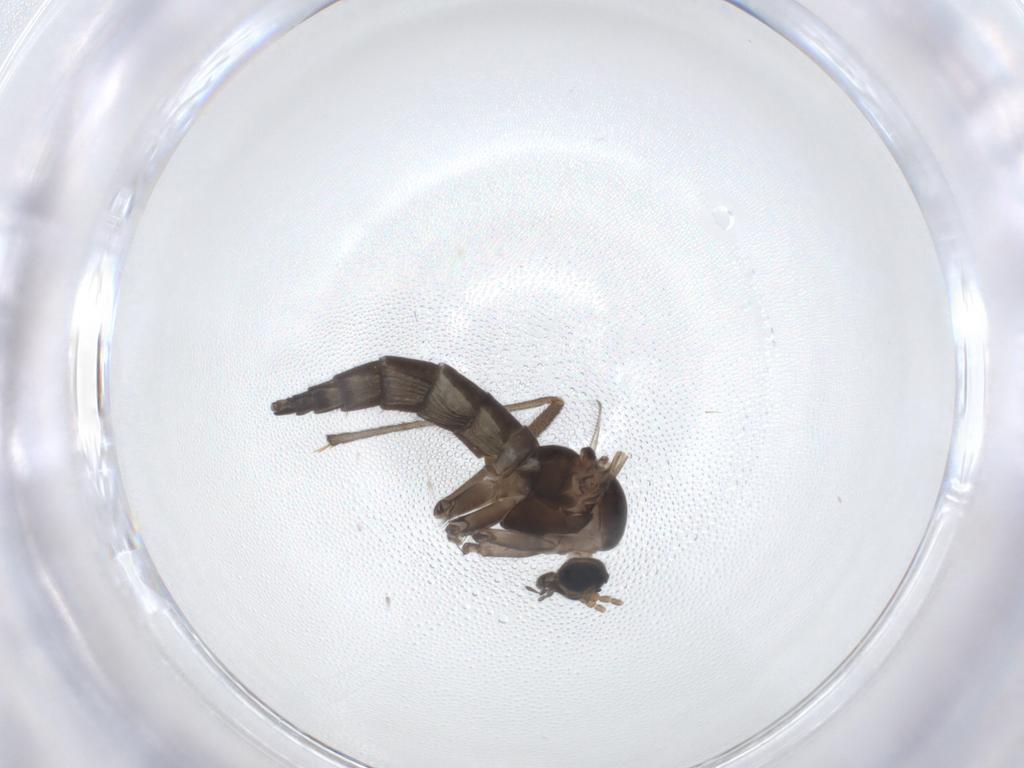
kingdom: Animalia
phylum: Arthropoda
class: Insecta
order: Diptera
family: Sciaridae
